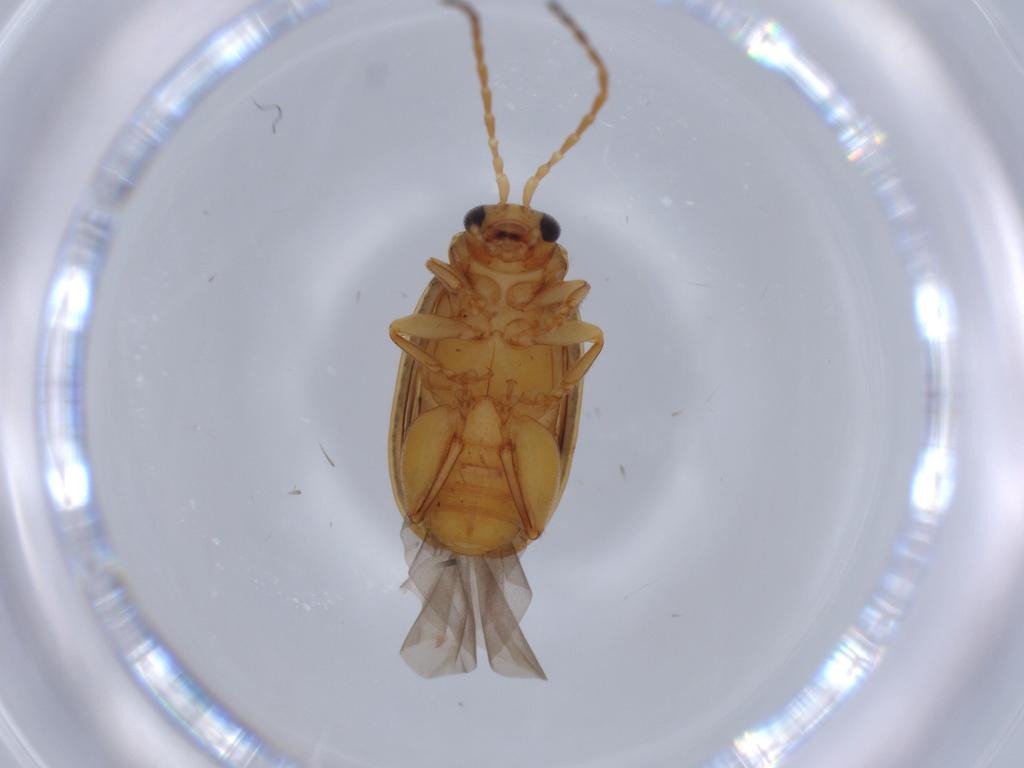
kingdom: Animalia
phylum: Arthropoda
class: Insecta
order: Coleoptera
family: Chrysomelidae
